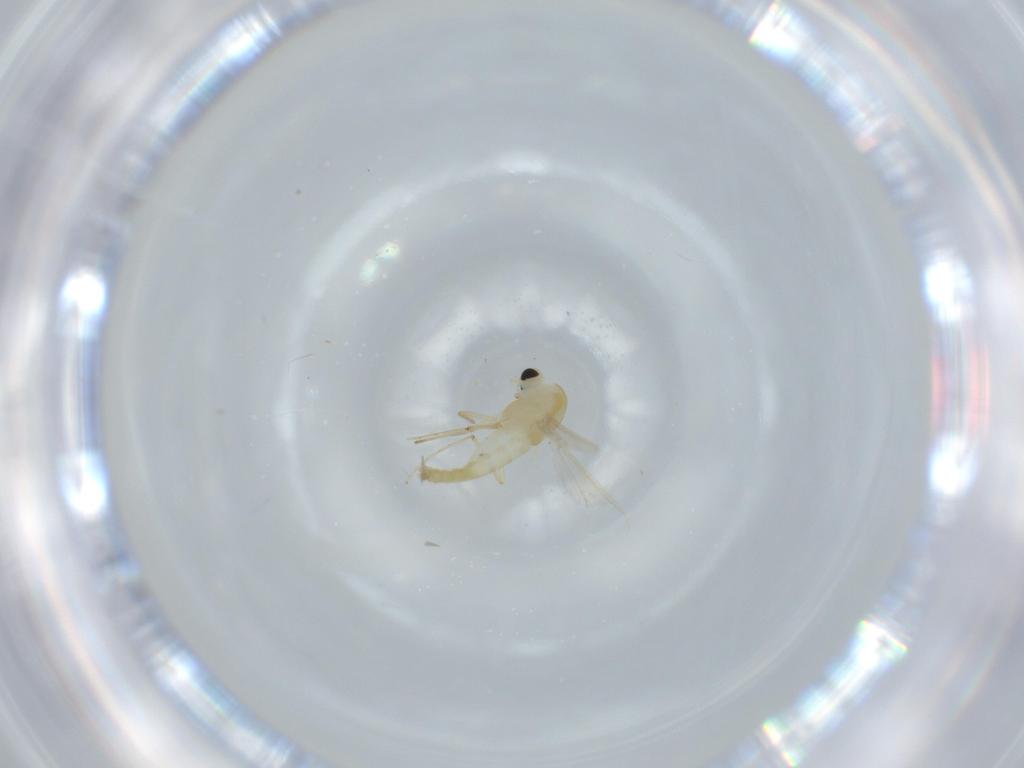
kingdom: Animalia
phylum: Arthropoda
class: Insecta
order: Diptera
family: Chironomidae
